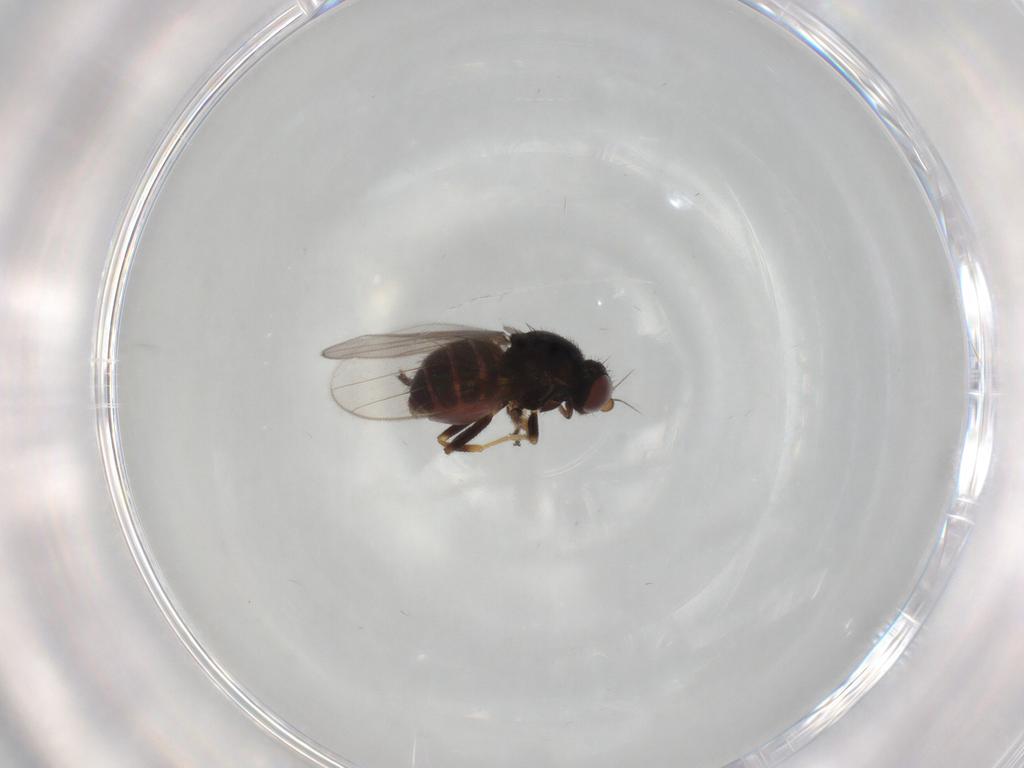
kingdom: Animalia
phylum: Arthropoda
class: Insecta
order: Diptera
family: Chloropidae
